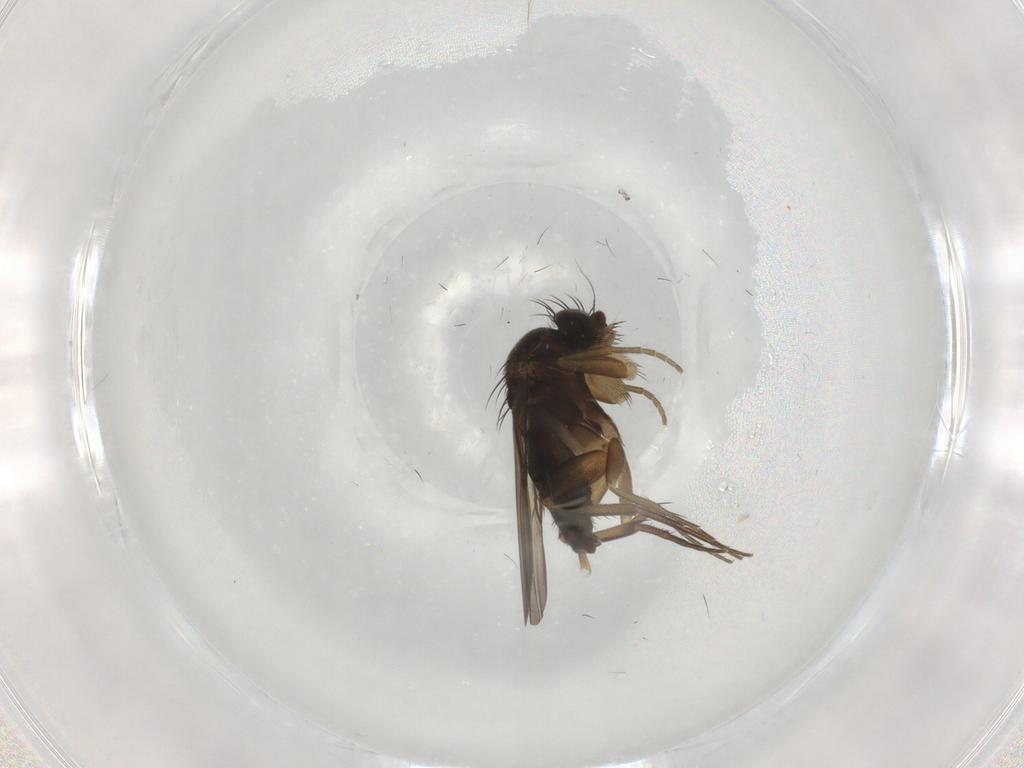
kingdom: Animalia
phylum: Arthropoda
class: Insecta
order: Diptera
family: Phoridae
